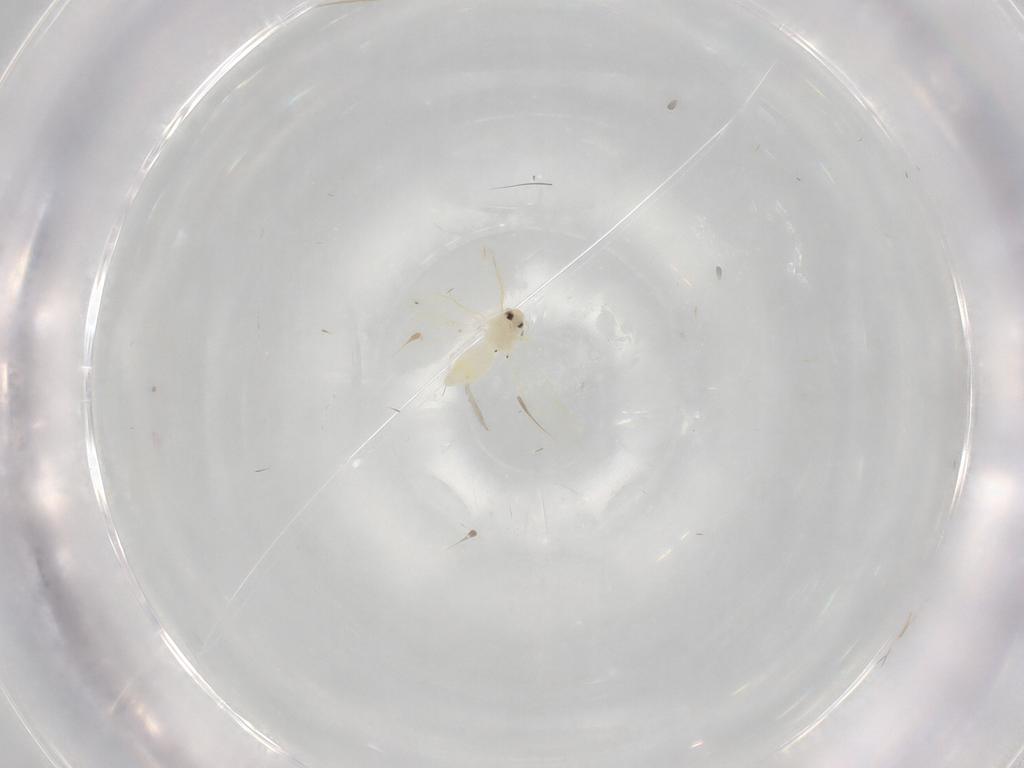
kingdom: Animalia
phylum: Arthropoda
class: Insecta
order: Hemiptera
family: Aleyrodidae
